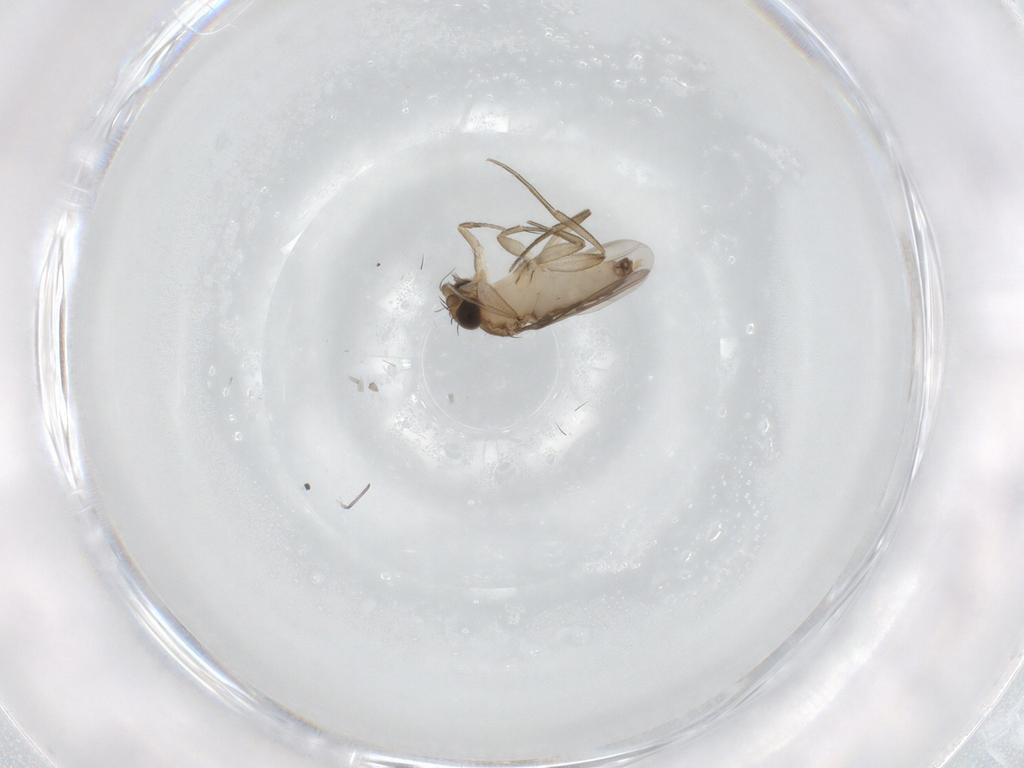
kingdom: Animalia
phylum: Arthropoda
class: Insecta
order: Diptera
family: Phoridae
